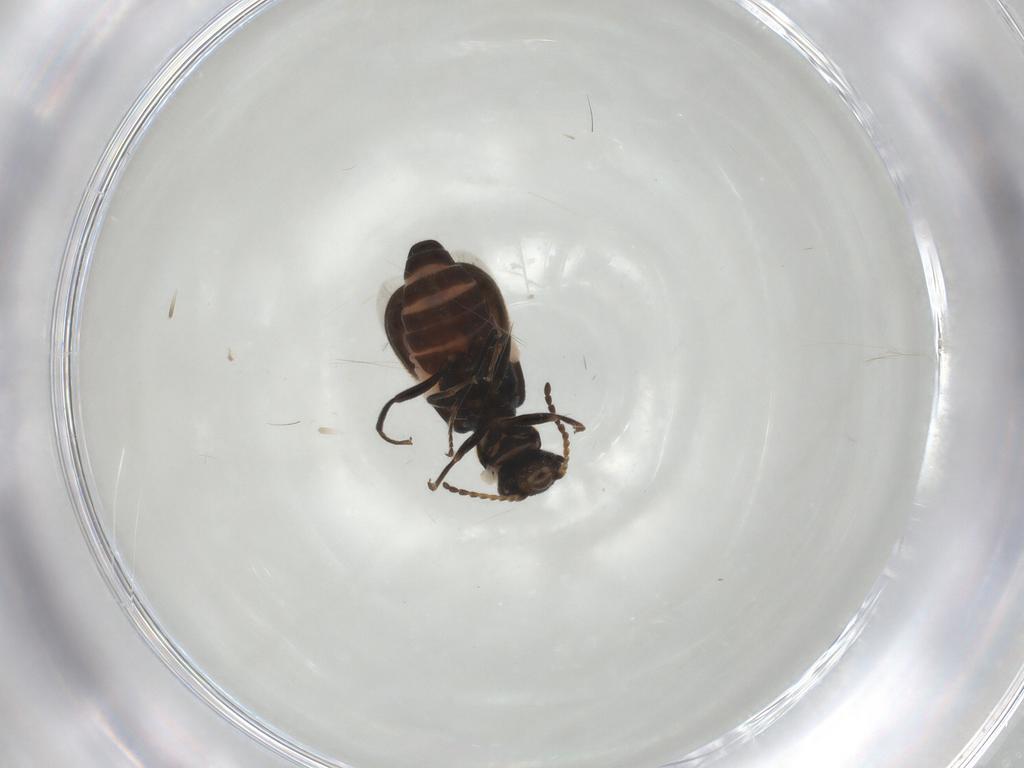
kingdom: Animalia
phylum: Arthropoda
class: Insecta
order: Coleoptera
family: Melyridae
